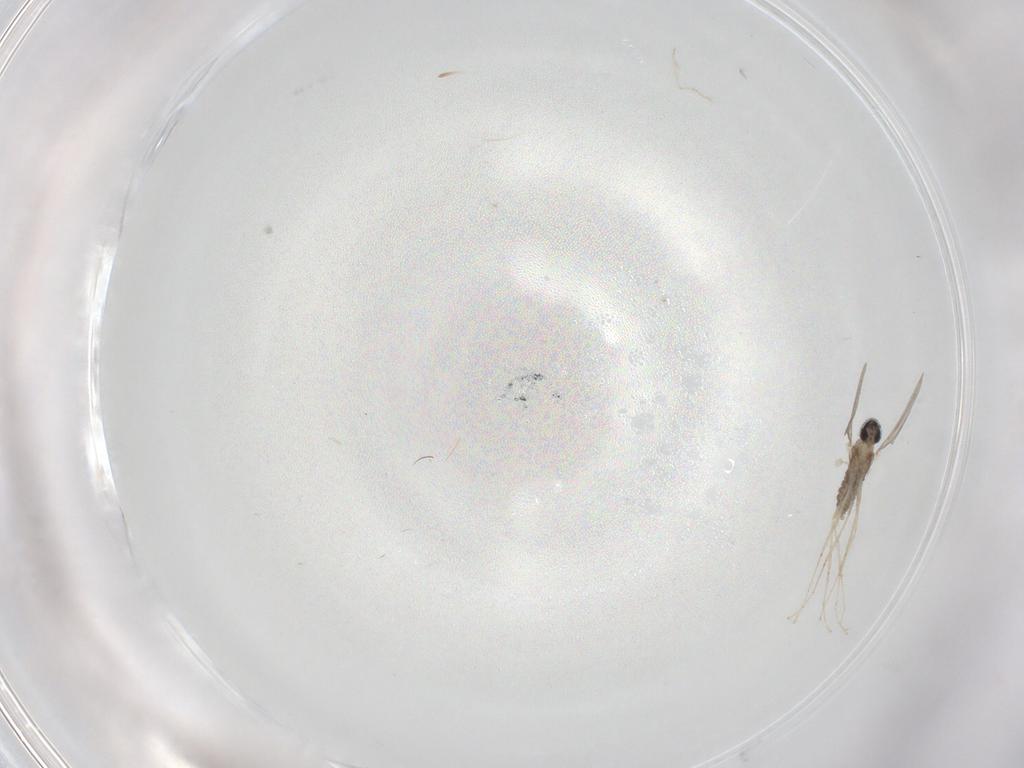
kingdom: Animalia
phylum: Arthropoda
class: Insecta
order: Diptera
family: Cecidomyiidae
